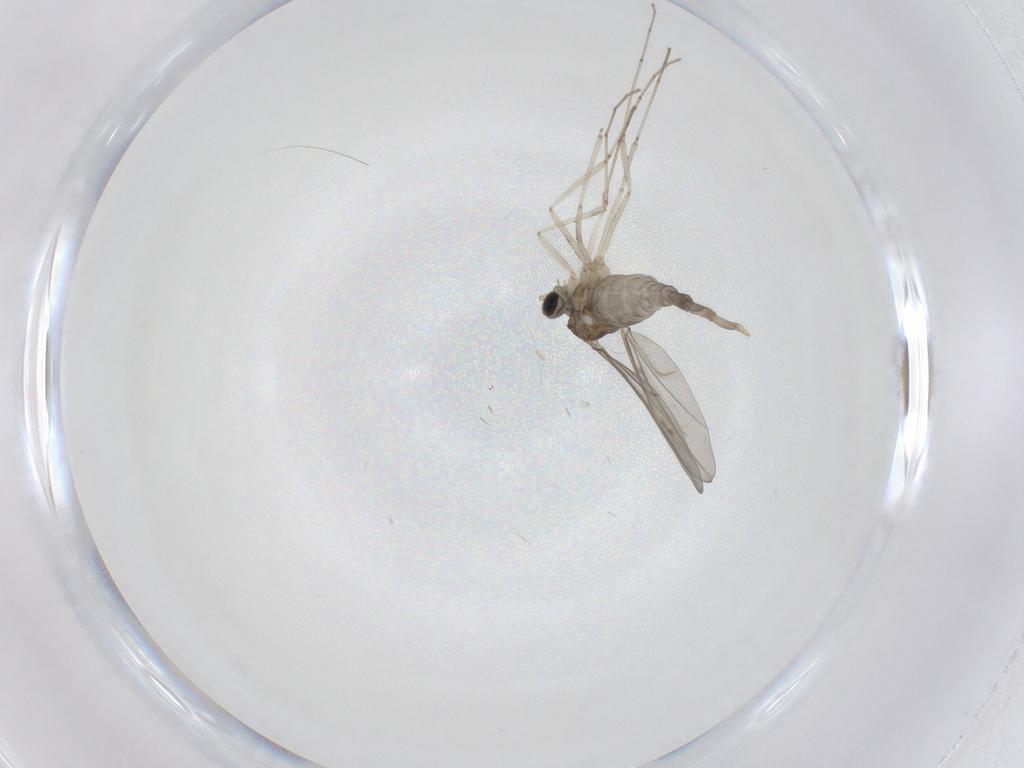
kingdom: Animalia
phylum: Arthropoda
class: Insecta
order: Diptera
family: Cecidomyiidae
